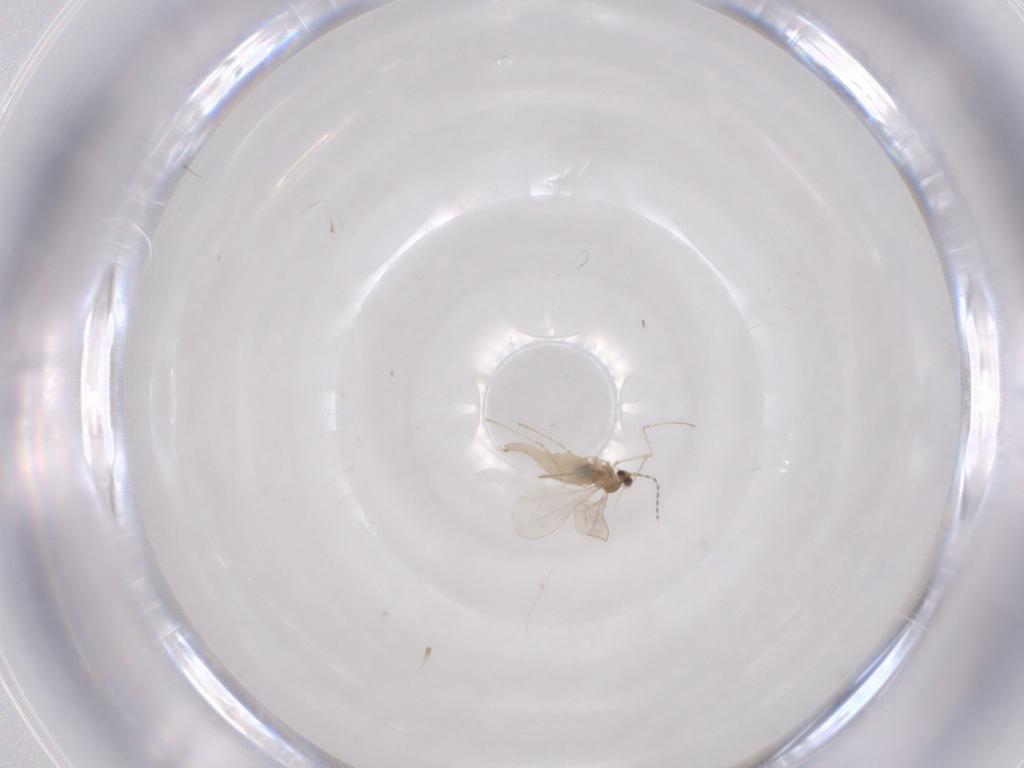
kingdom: Animalia
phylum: Arthropoda
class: Insecta
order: Diptera
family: Cecidomyiidae
